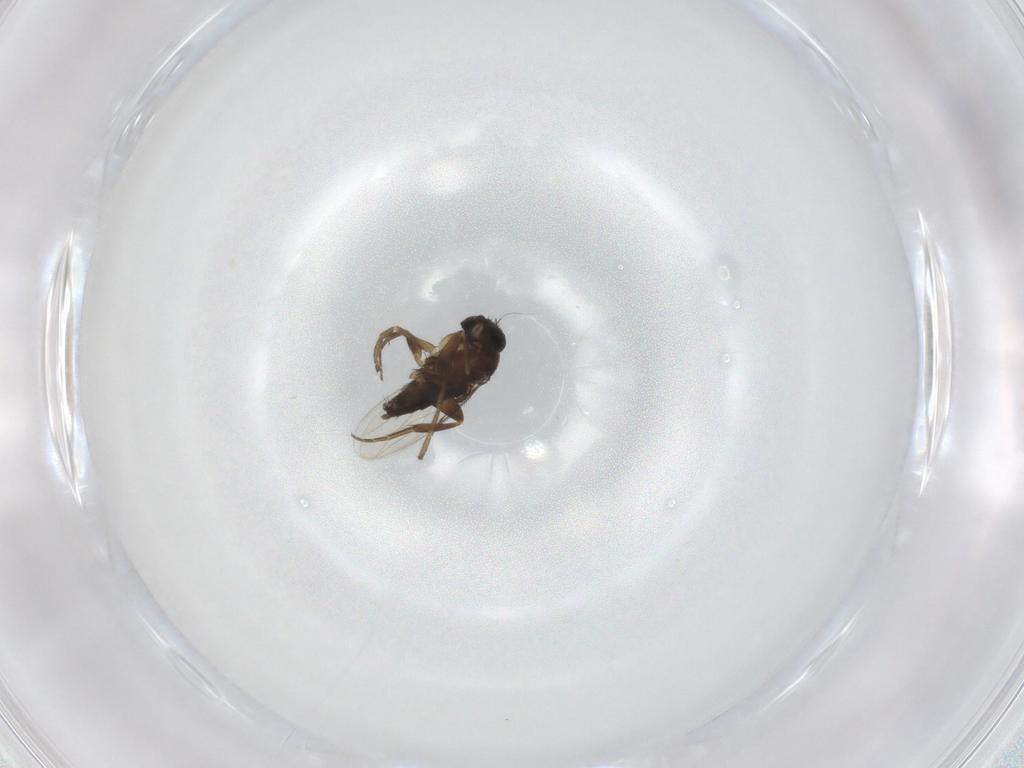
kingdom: Animalia
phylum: Arthropoda
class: Insecta
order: Diptera
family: Phoridae
